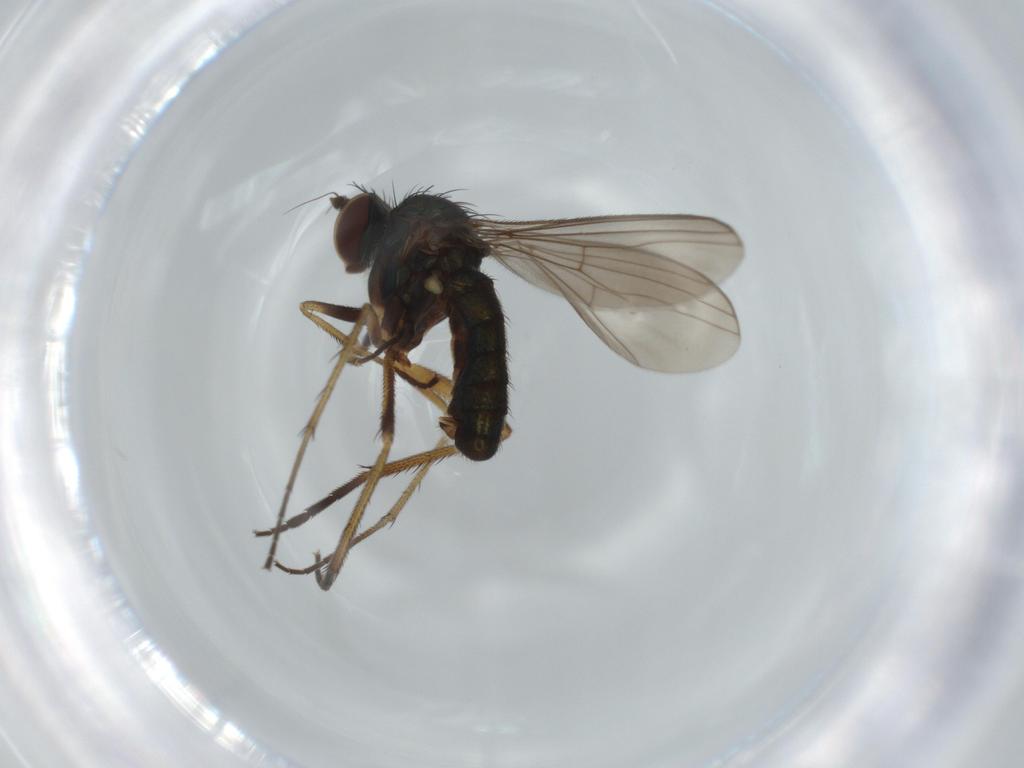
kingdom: Animalia
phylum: Arthropoda
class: Insecta
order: Diptera
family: Dolichopodidae
